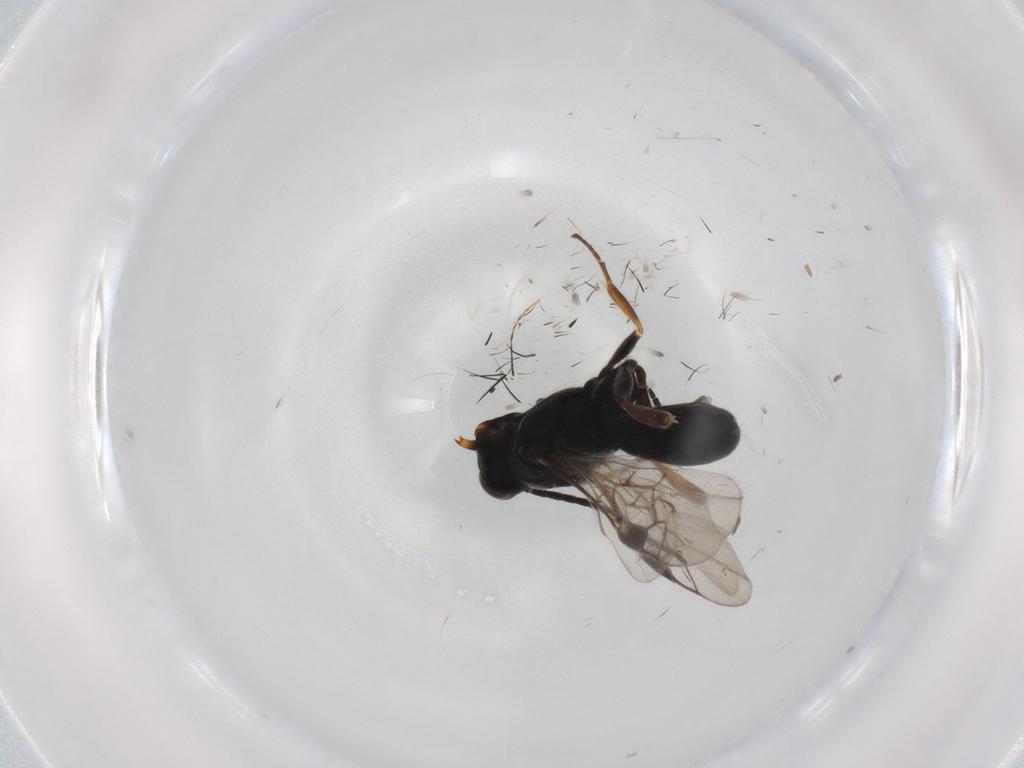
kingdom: Animalia
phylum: Arthropoda
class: Insecta
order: Hymenoptera
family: Braconidae
